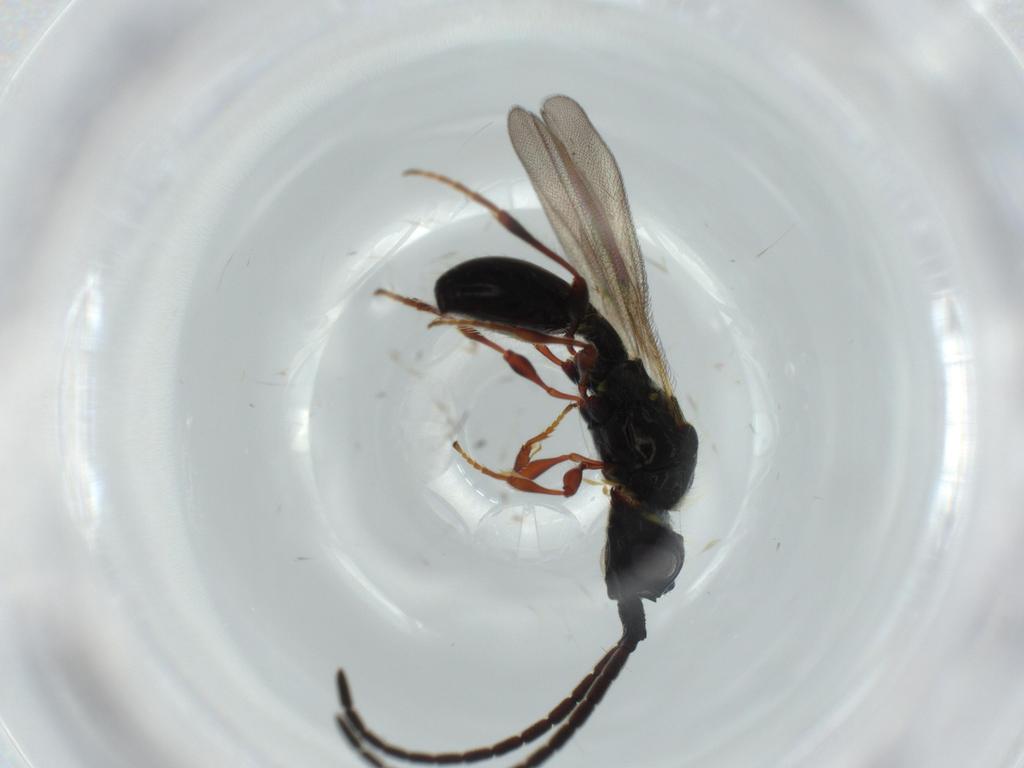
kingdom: Animalia
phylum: Arthropoda
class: Insecta
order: Hymenoptera
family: Diapriidae
